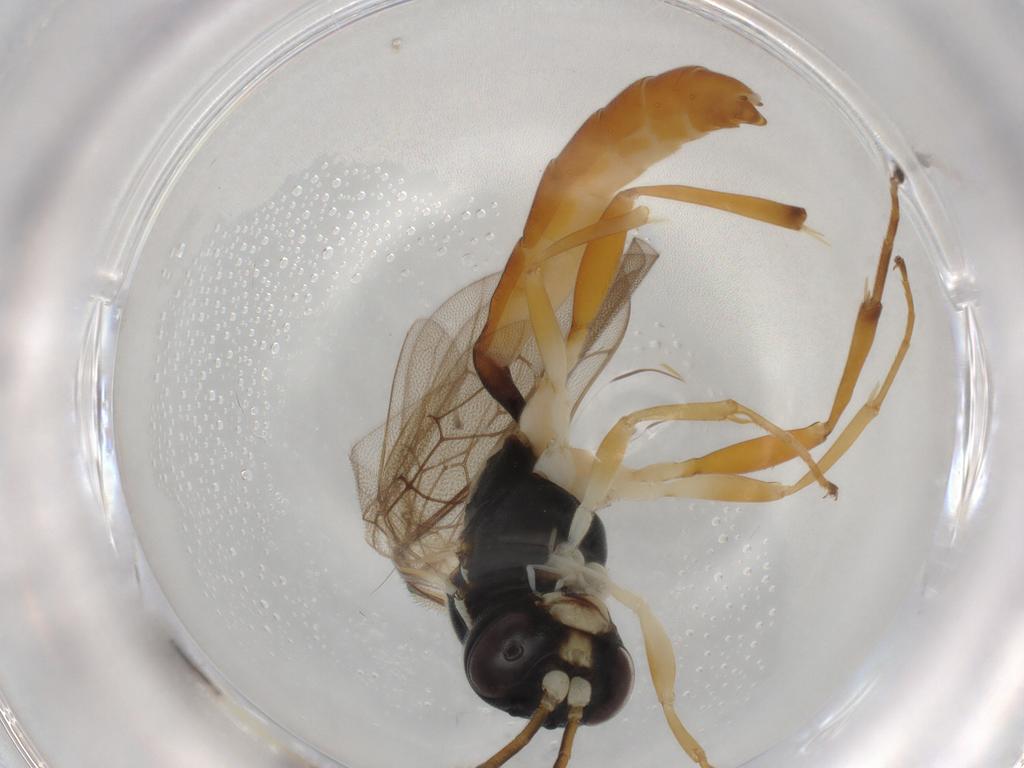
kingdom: Animalia
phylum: Arthropoda
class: Insecta
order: Hymenoptera
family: Ichneumonidae
